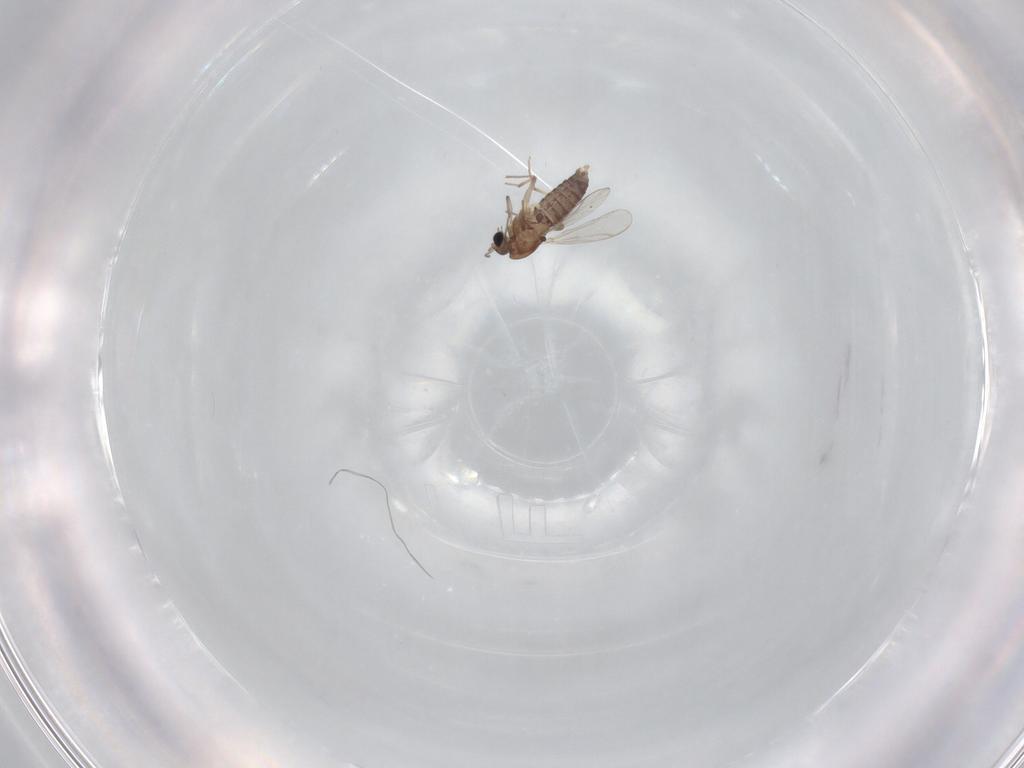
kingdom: Animalia
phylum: Arthropoda
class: Insecta
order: Diptera
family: Chironomidae
